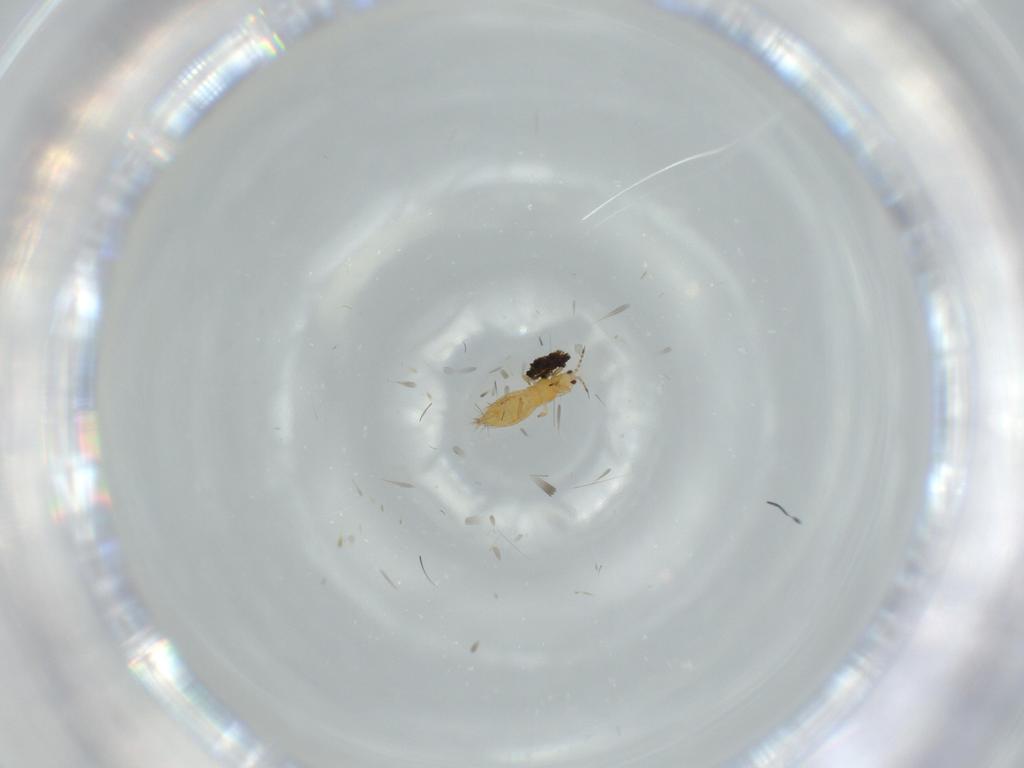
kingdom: Animalia
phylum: Arthropoda
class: Insecta
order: Thysanoptera
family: Thripidae
